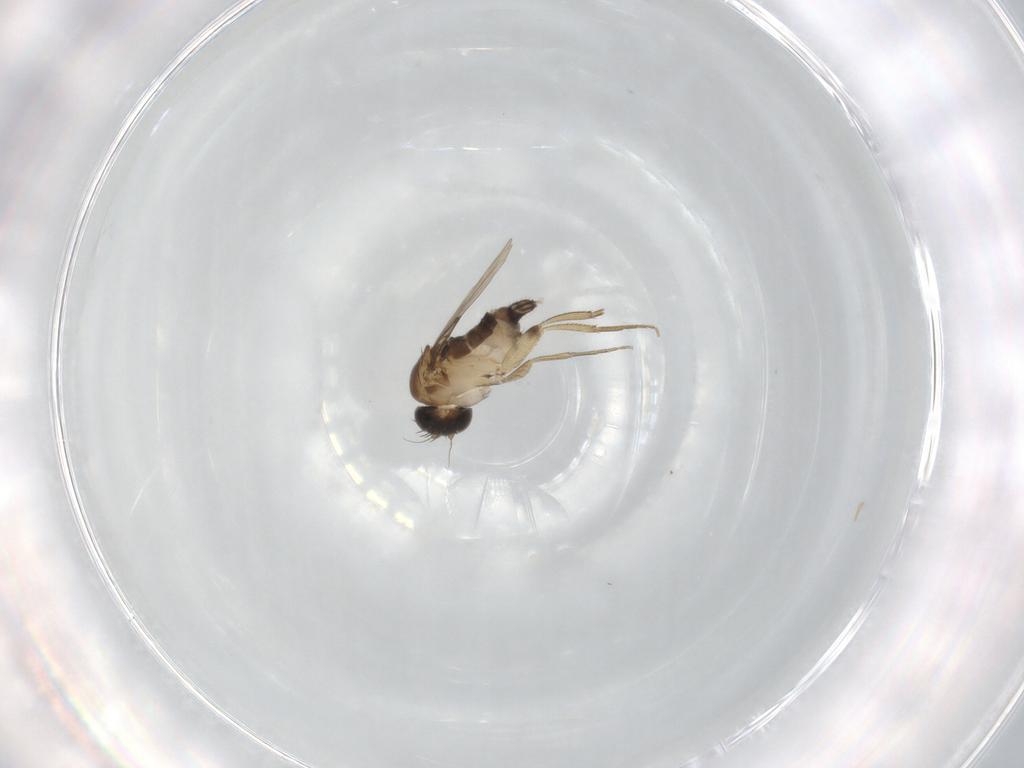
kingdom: Animalia
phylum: Arthropoda
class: Insecta
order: Diptera
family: Phoridae
